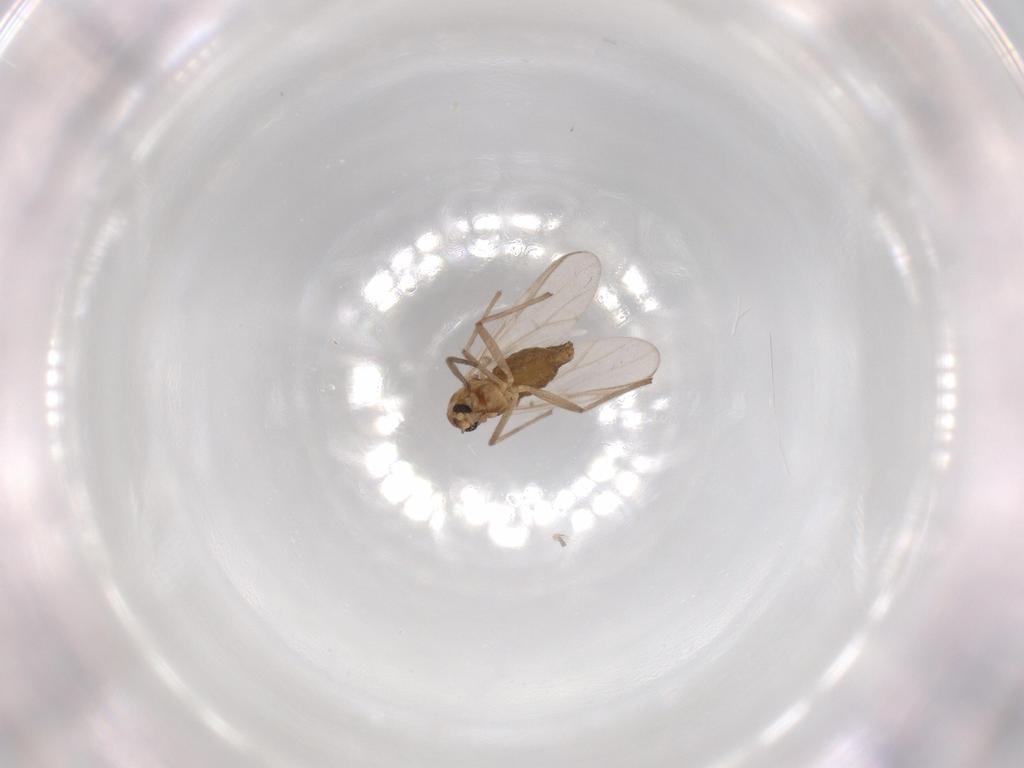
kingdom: Animalia
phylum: Arthropoda
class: Insecta
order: Diptera
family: Chironomidae
